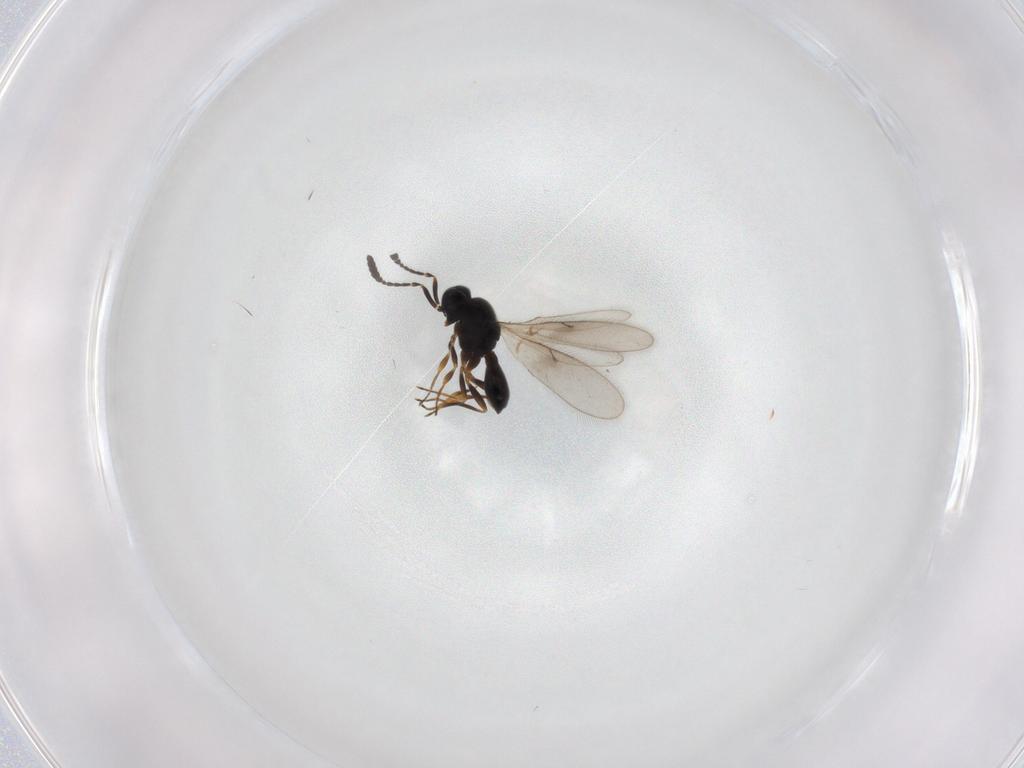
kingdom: Animalia
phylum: Arthropoda
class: Insecta
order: Hymenoptera
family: Scelionidae
